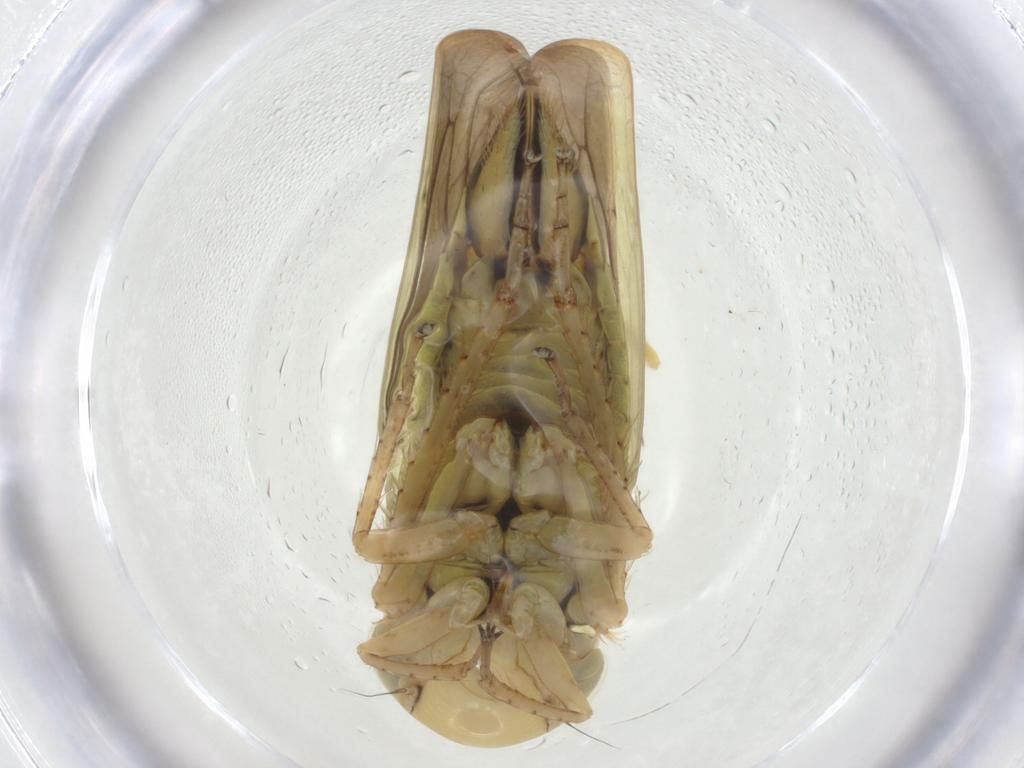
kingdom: Animalia
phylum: Arthropoda
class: Insecta
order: Hemiptera
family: Cicadellidae
